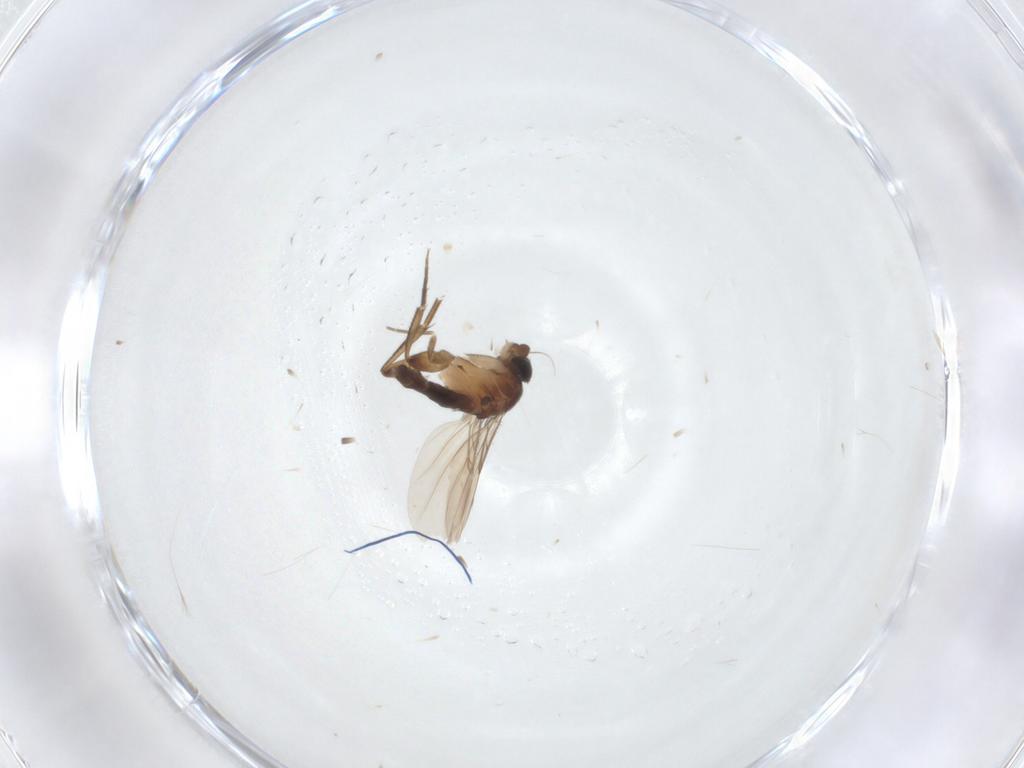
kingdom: Animalia
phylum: Arthropoda
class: Insecta
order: Diptera
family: Phoridae
